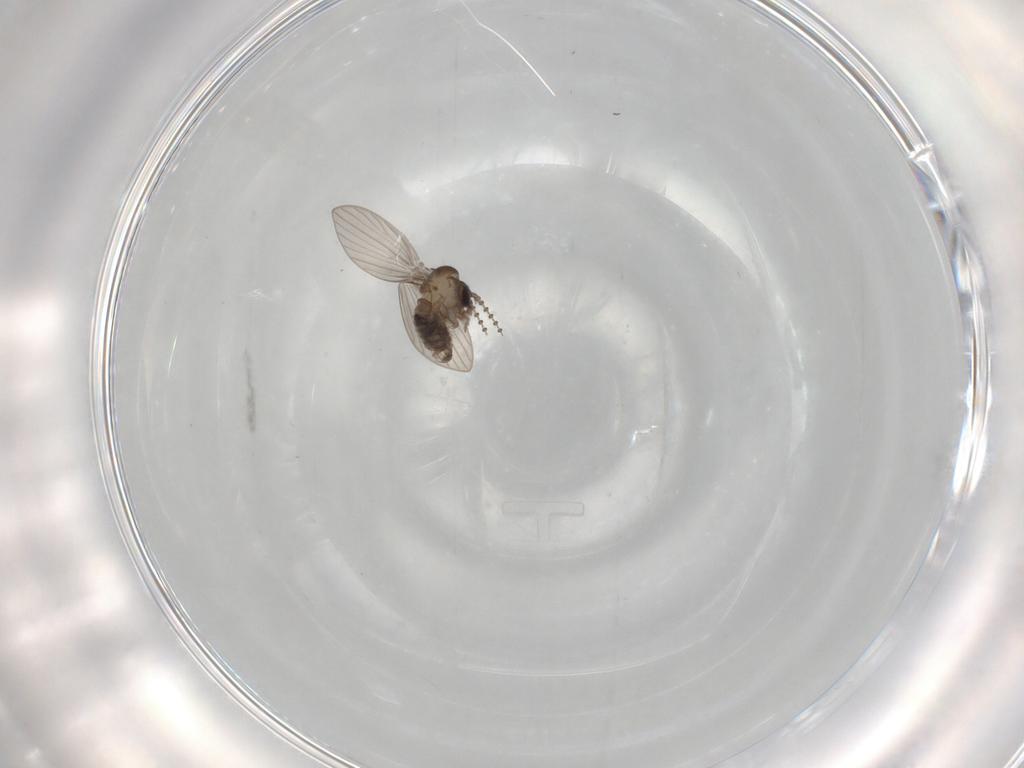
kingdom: Animalia
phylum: Arthropoda
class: Insecta
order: Diptera
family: Psychodidae
